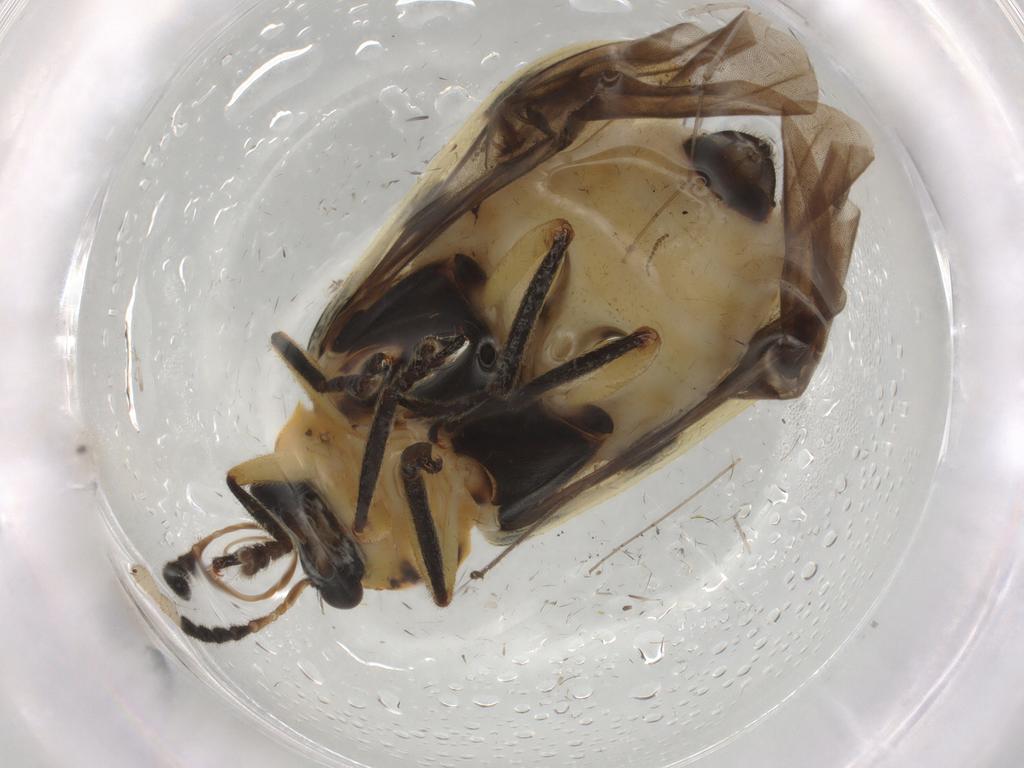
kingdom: Animalia
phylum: Arthropoda
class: Insecta
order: Coleoptera
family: Chrysomelidae
